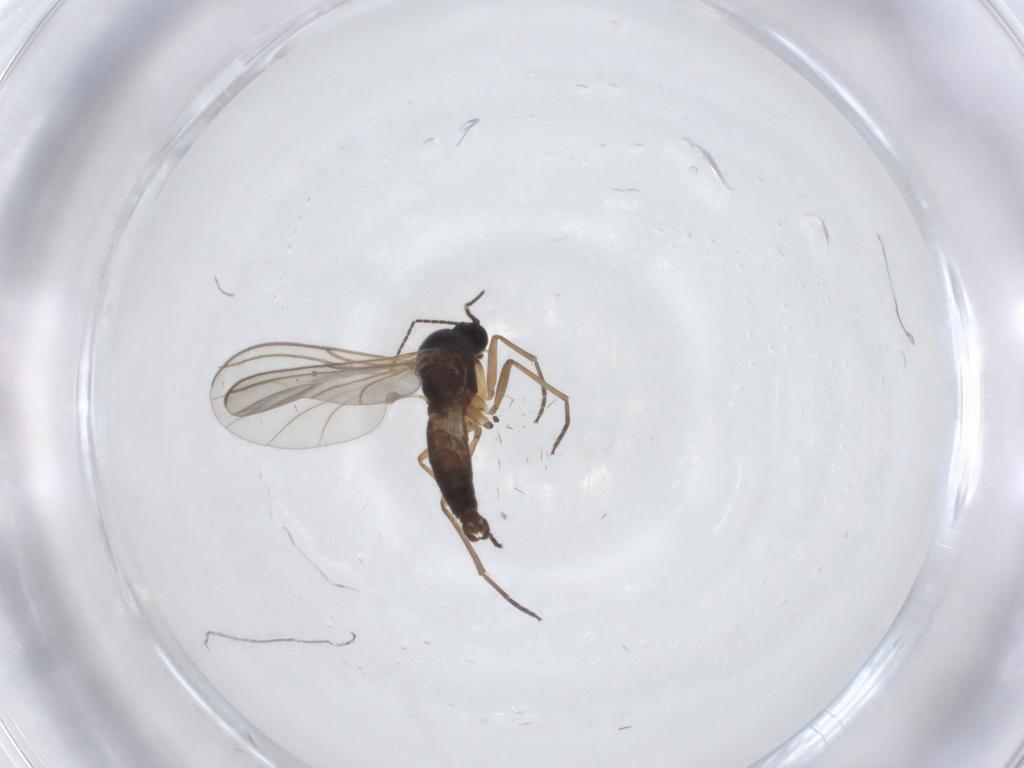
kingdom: Animalia
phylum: Arthropoda
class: Insecta
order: Diptera
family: Sciaridae
